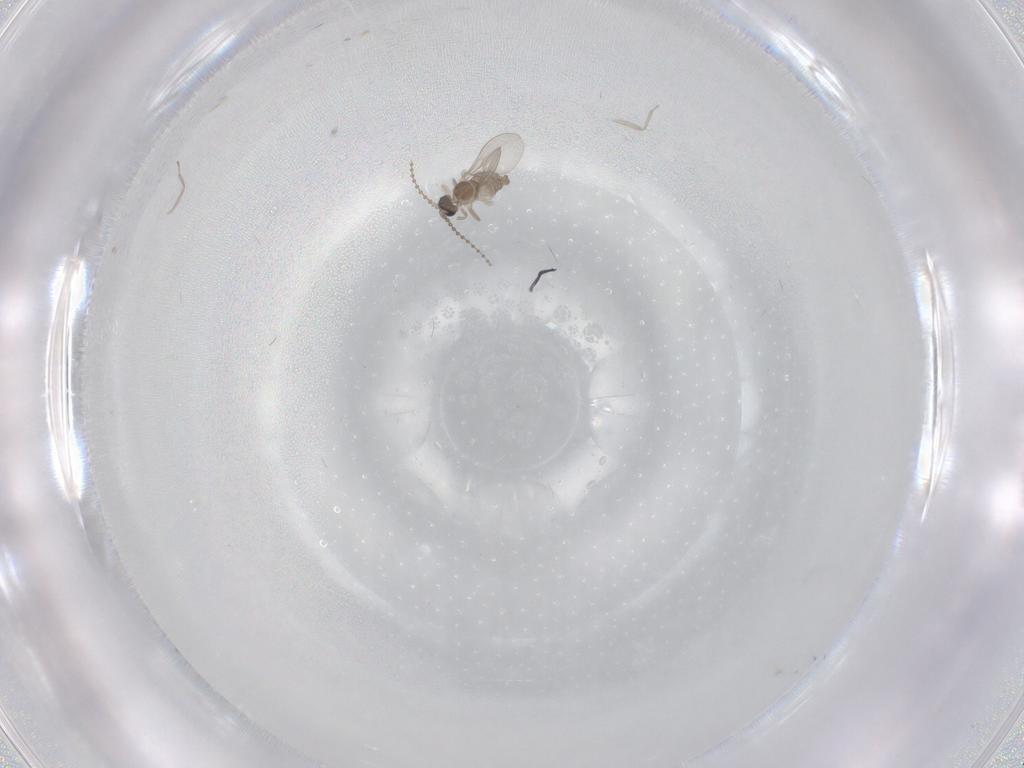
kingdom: Animalia
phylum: Arthropoda
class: Insecta
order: Diptera
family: Cecidomyiidae
